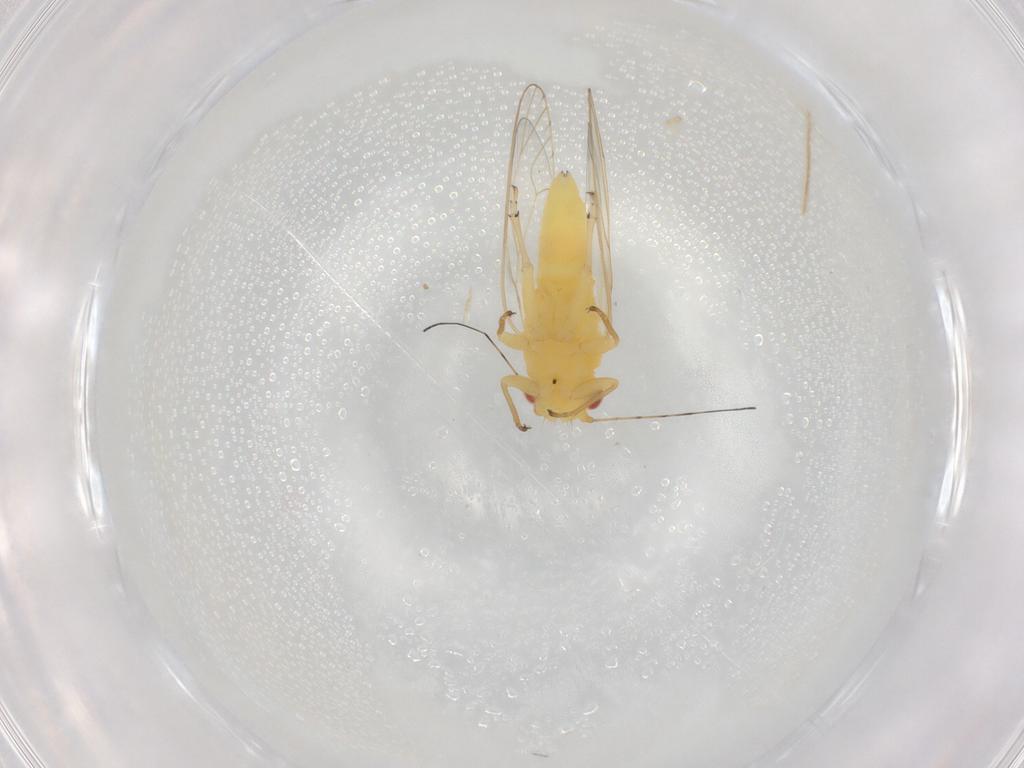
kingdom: Animalia
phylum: Arthropoda
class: Insecta
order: Hemiptera
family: Psyllidae
